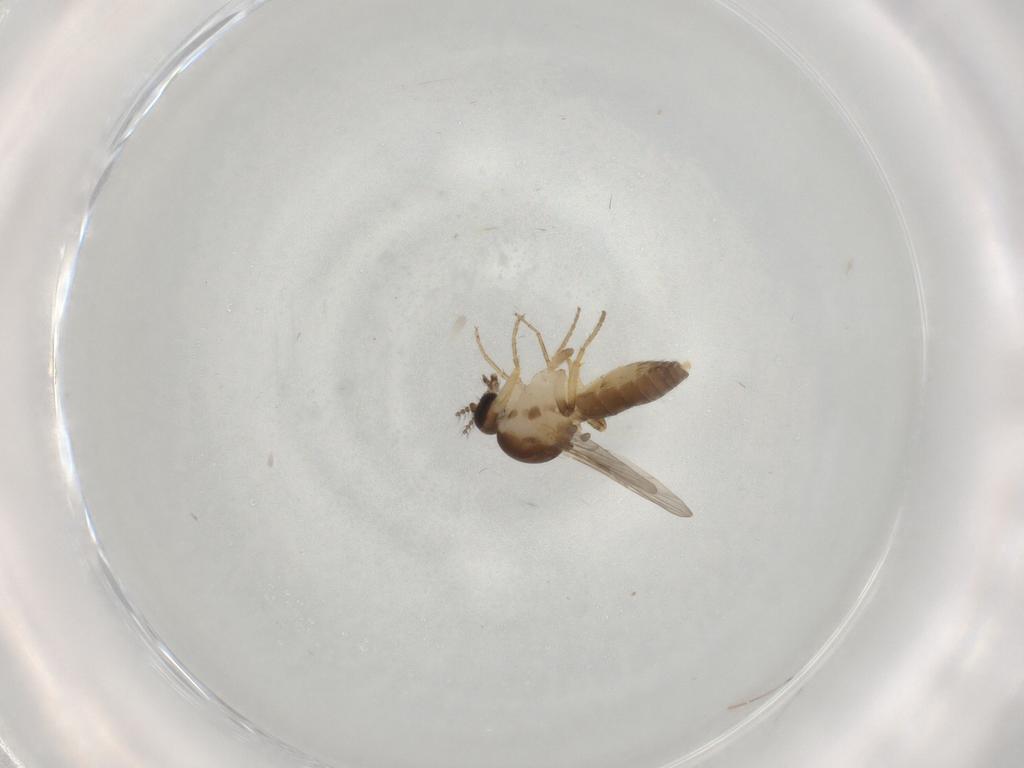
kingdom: Animalia
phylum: Arthropoda
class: Insecta
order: Diptera
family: Ceratopogonidae
